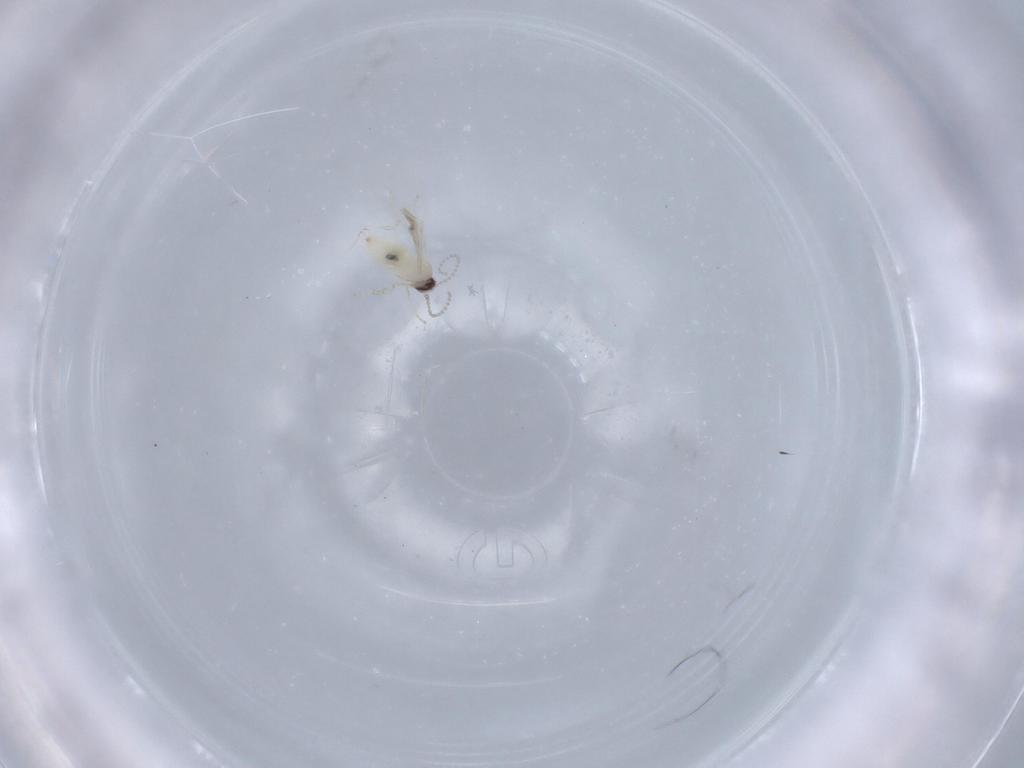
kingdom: Animalia
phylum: Arthropoda
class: Insecta
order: Diptera
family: Cecidomyiidae
